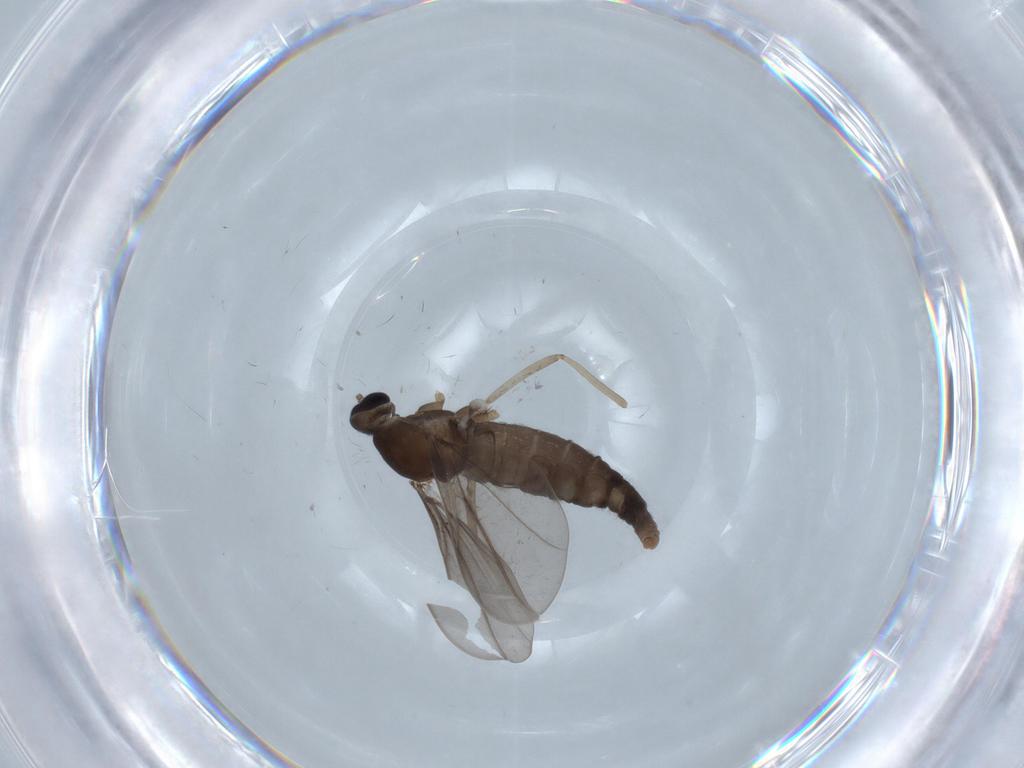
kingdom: Animalia
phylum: Arthropoda
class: Insecta
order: Diptera
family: Cecidomyiidae
